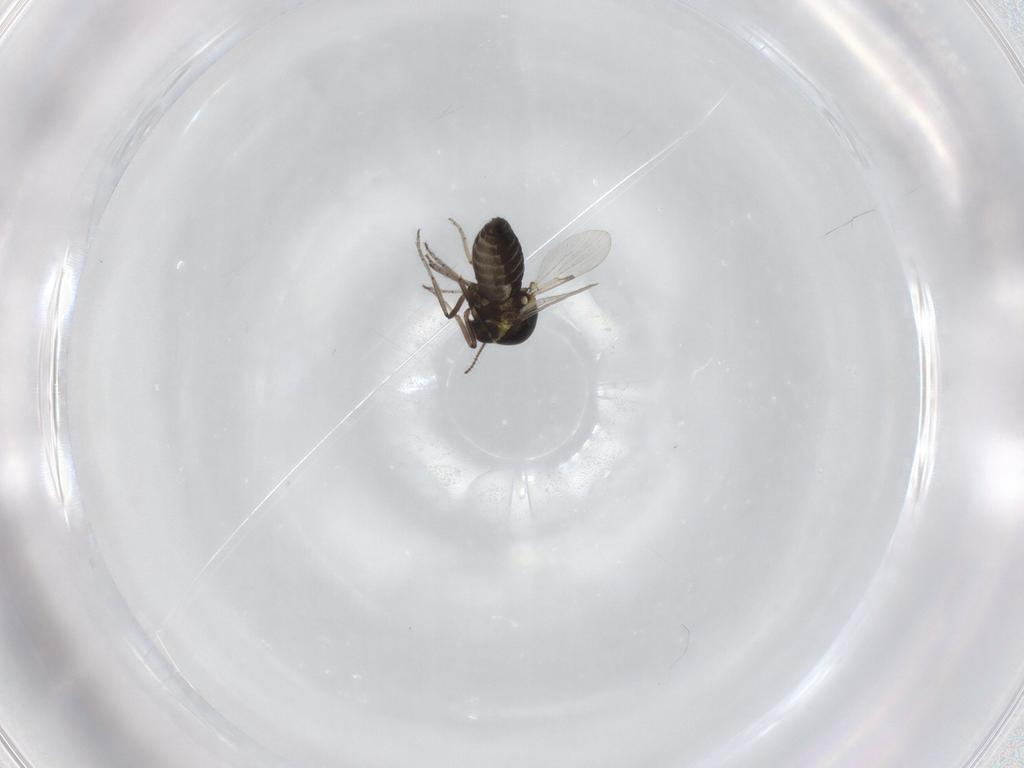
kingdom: Animalia
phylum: Arthropoda
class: Insecta
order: Diptera
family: Ceratopogonidae
